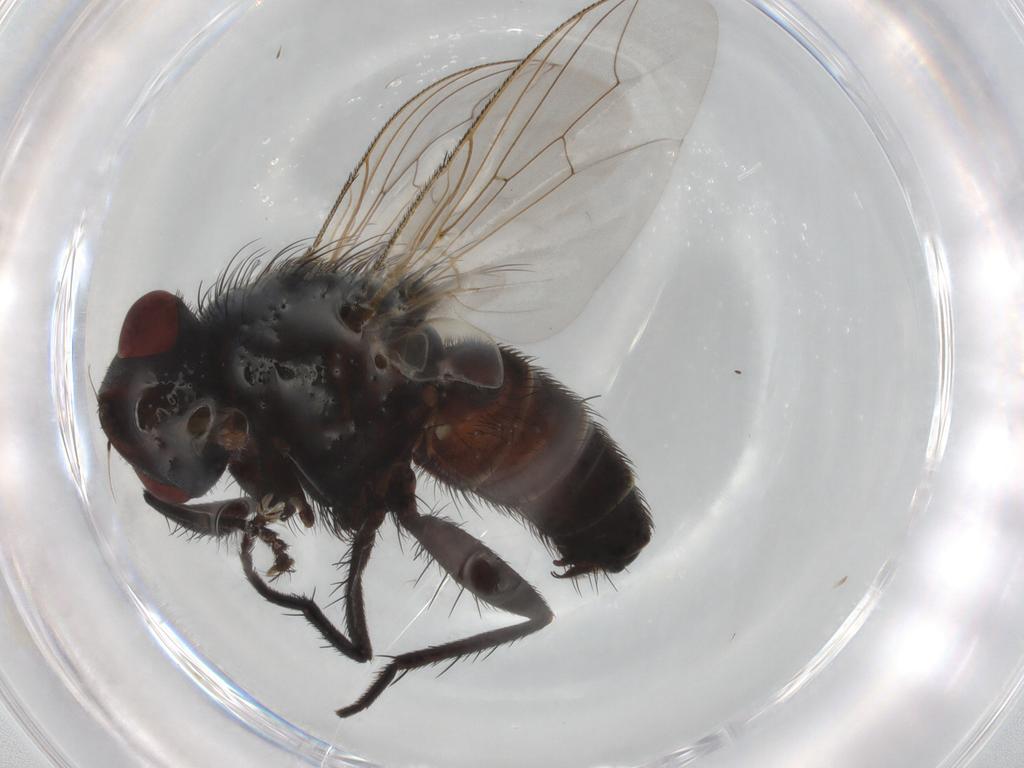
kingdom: Animalia
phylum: Arthropoda
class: Insecta
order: Diptera
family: Sarcophagidae
